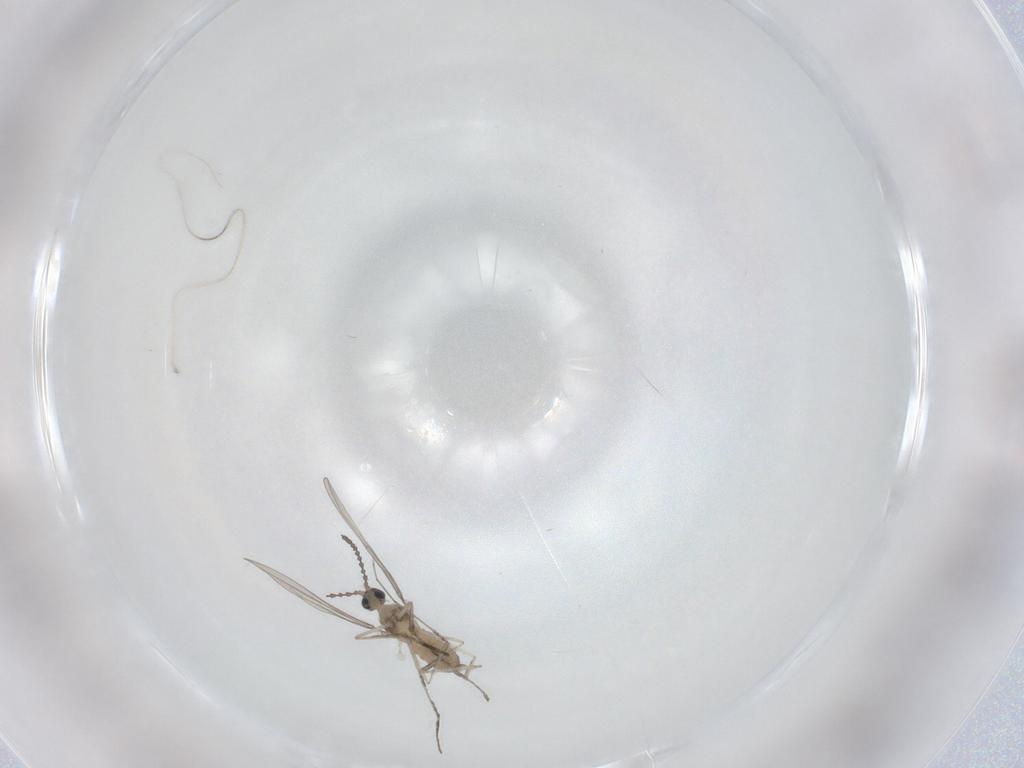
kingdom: Animalia
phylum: Arthropoda
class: Insecta
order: Diptera
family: Cecidomyiidae
